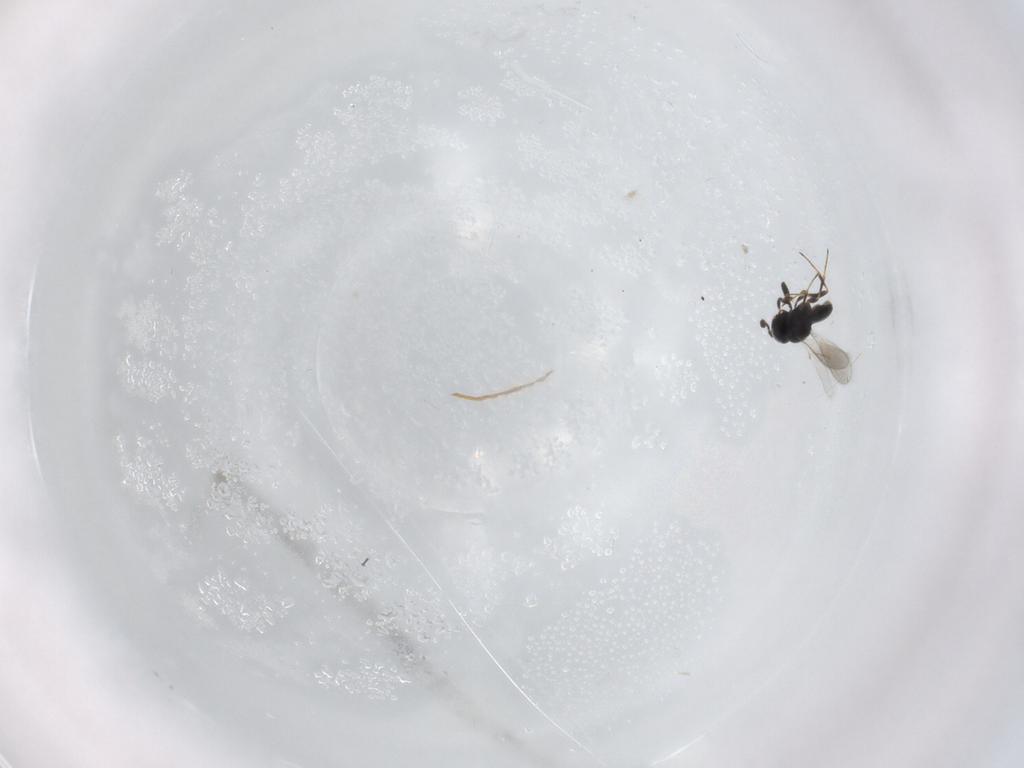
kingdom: Animalia
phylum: Arthropoda
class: Insecta
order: Hymenoptera
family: Scelionidae
